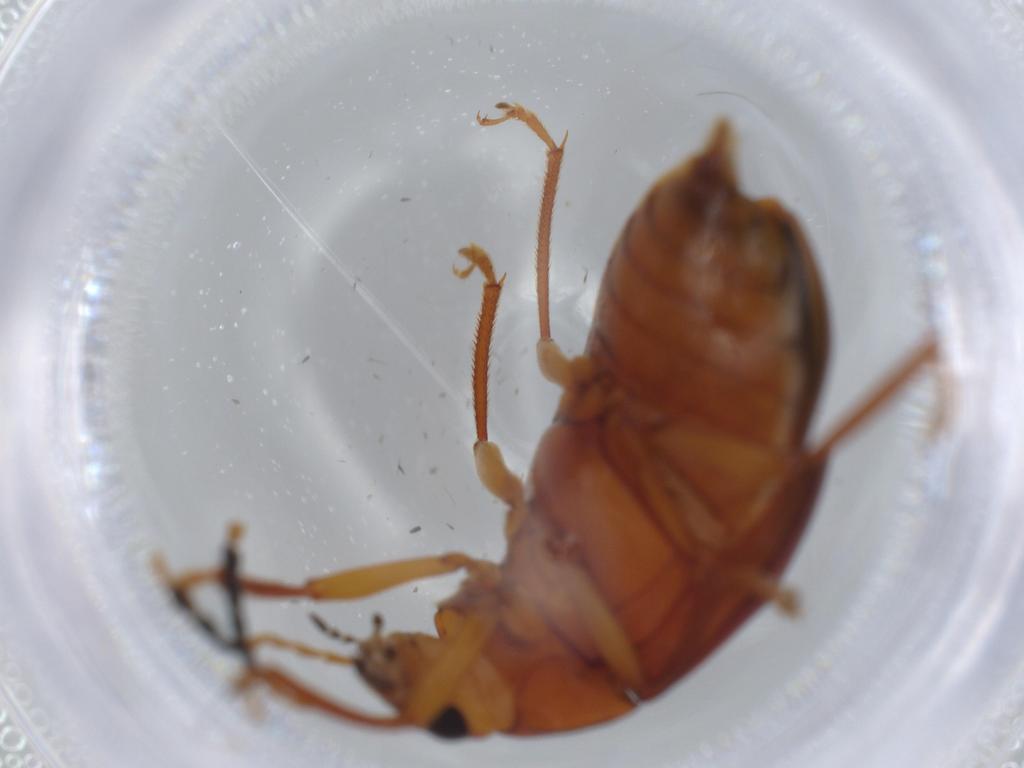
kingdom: Animalia
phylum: Arthropoda
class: Insecta
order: Coleoptera
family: Ptilodactylidae
